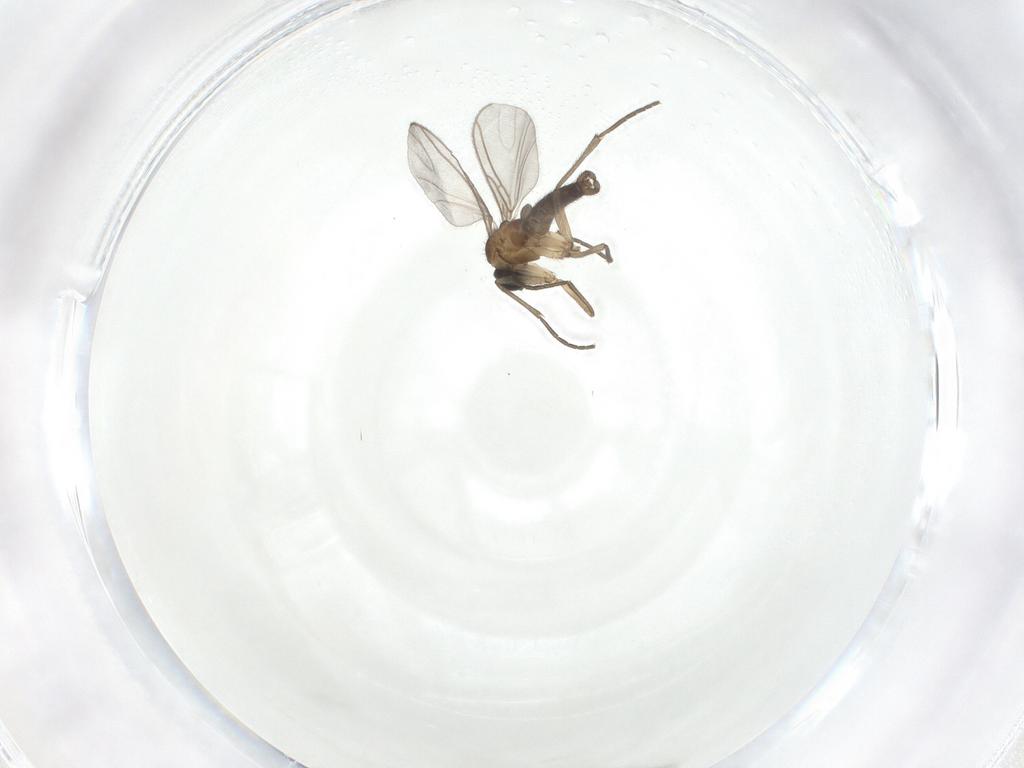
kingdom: Animalia
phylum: Arthropoda
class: Insecta
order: Diptera
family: Sciaridae
